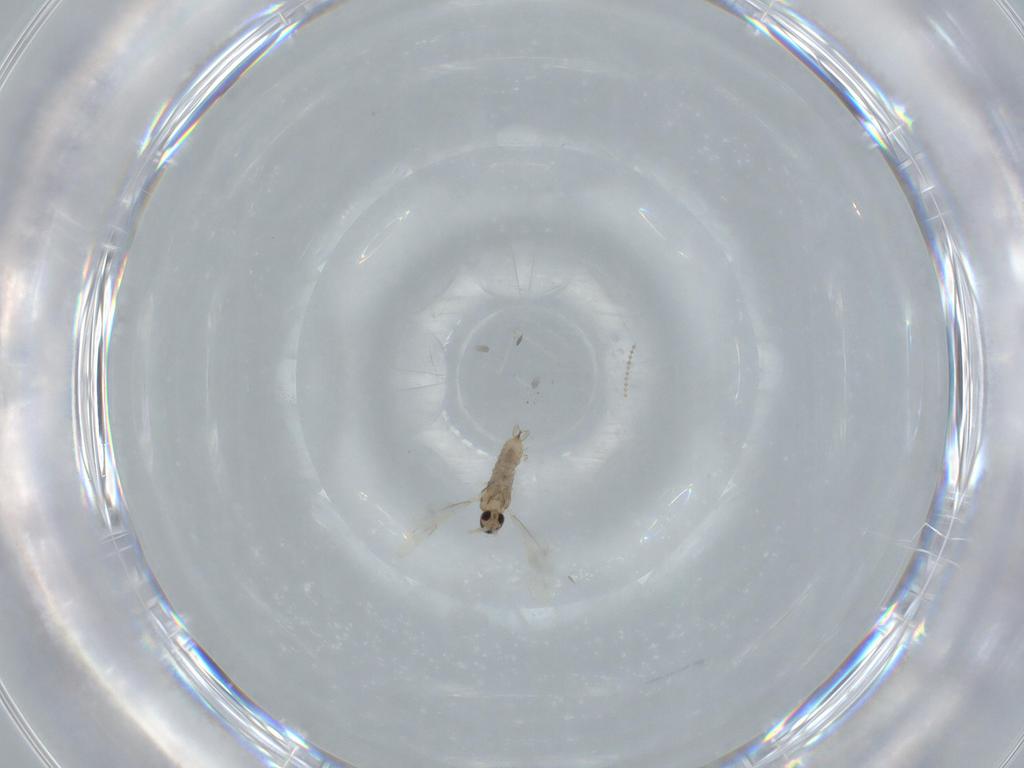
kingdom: Animalia
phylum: Arthropoda
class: Insecta
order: Diptera
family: Cecidomyiidae
